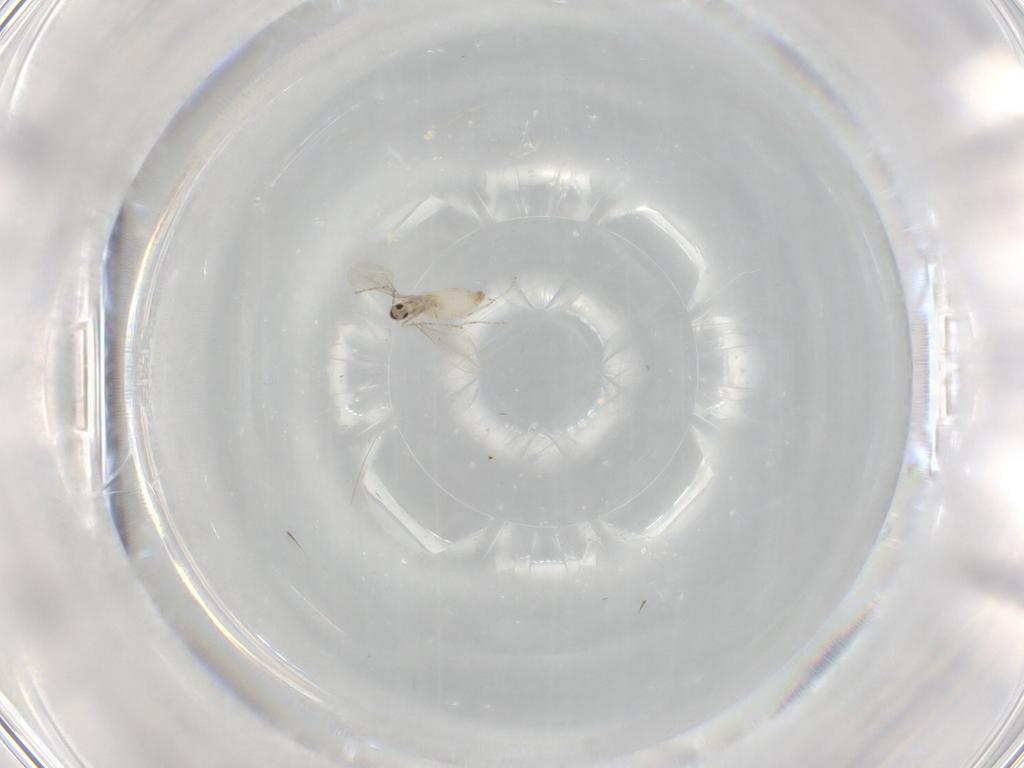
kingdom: Animalia
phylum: Arthropoda
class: Insecta
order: Diptera
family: Cecidomyiidae
